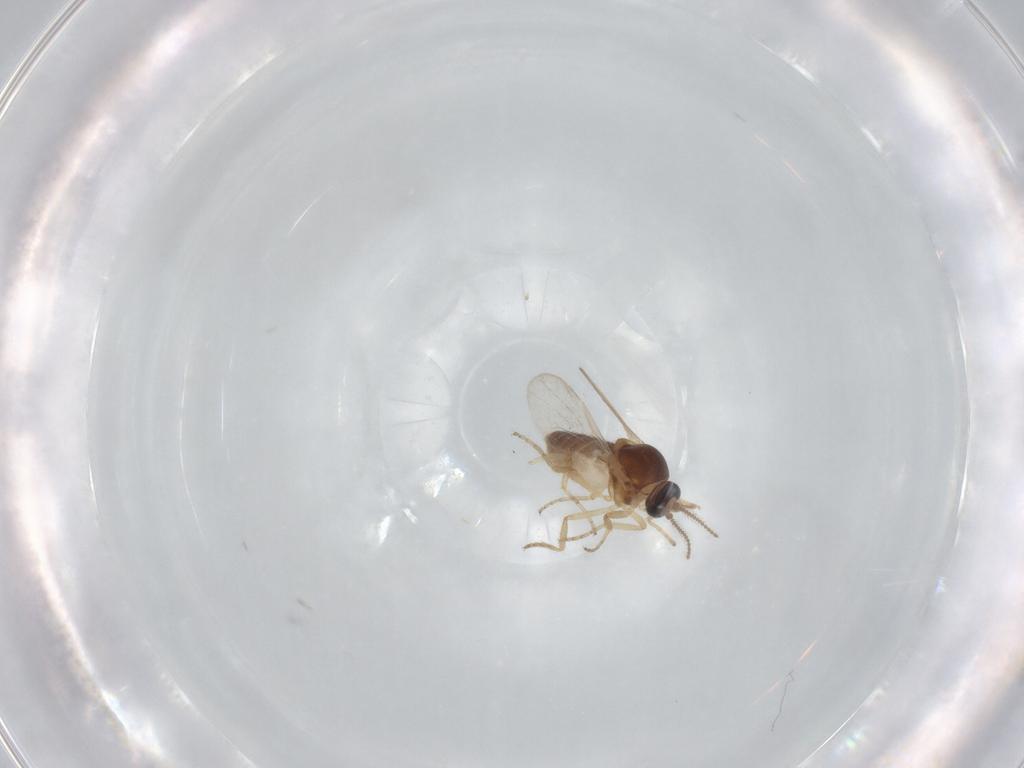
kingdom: Animalia
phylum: Arthropoda
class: Insecta
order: Diptera
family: Ceratopogonidae
